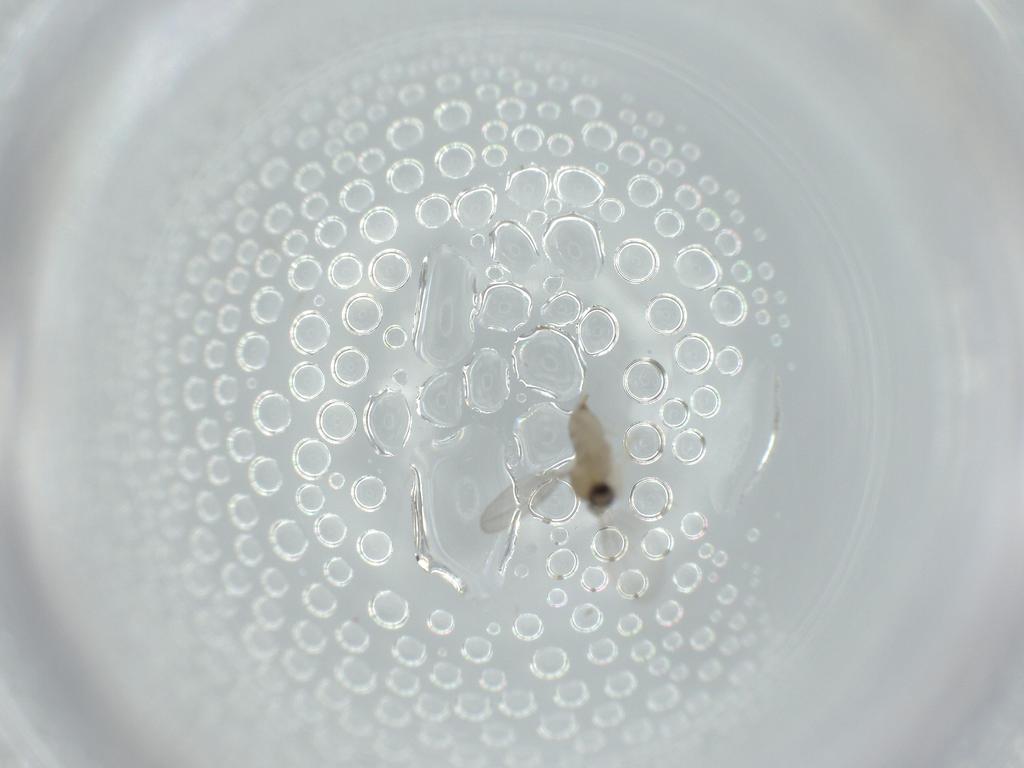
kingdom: Animalia
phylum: Arthropoda
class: Insecta
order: Diptera
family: Cecidomyiidae
